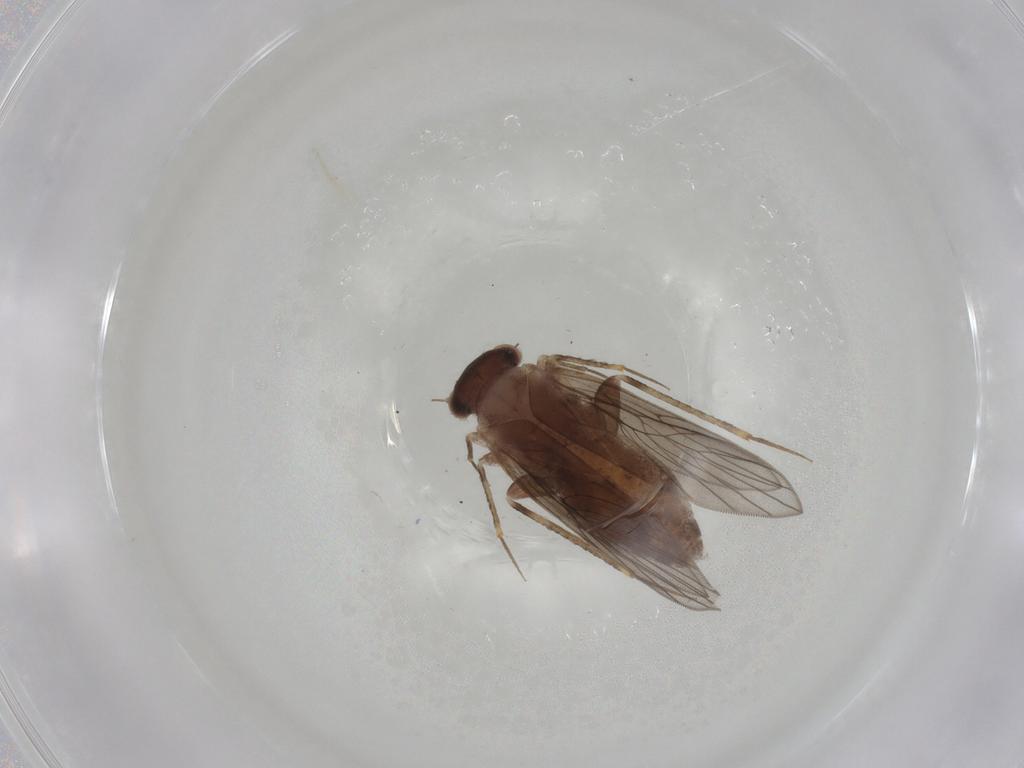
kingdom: Animalia
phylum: Arthropoda
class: Insecta
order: Psocodea
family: Lepidopsocidae
